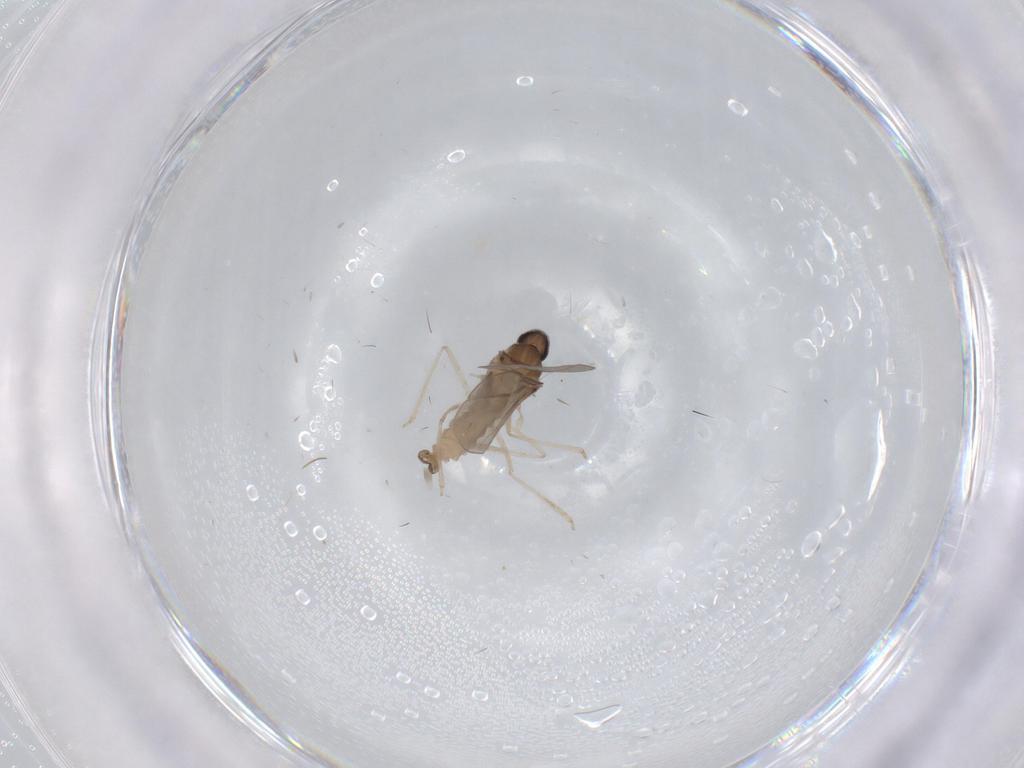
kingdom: Animalia
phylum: Arthropoda
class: Insecta
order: Diptera
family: Cecidomyiidae
